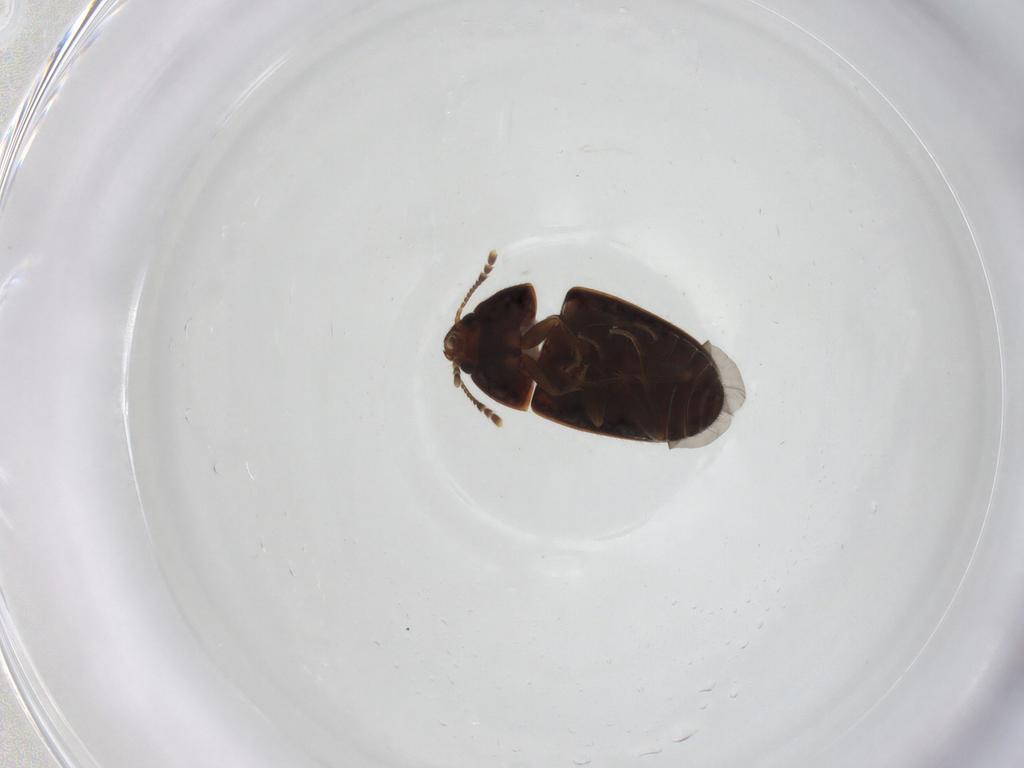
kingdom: Animalia
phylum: Arthropoda
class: Insecta
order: Coleoptera
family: Mycetophagidae
